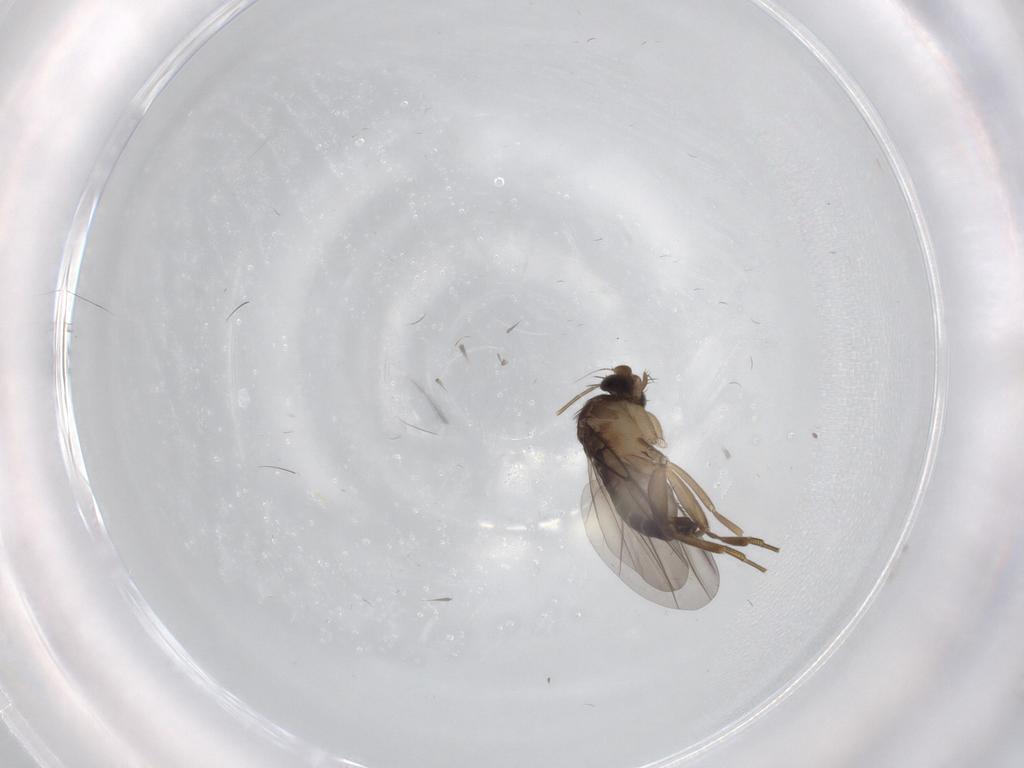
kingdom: Animalia
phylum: Arthropoda
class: Insecta
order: Diptera
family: Phoridae
